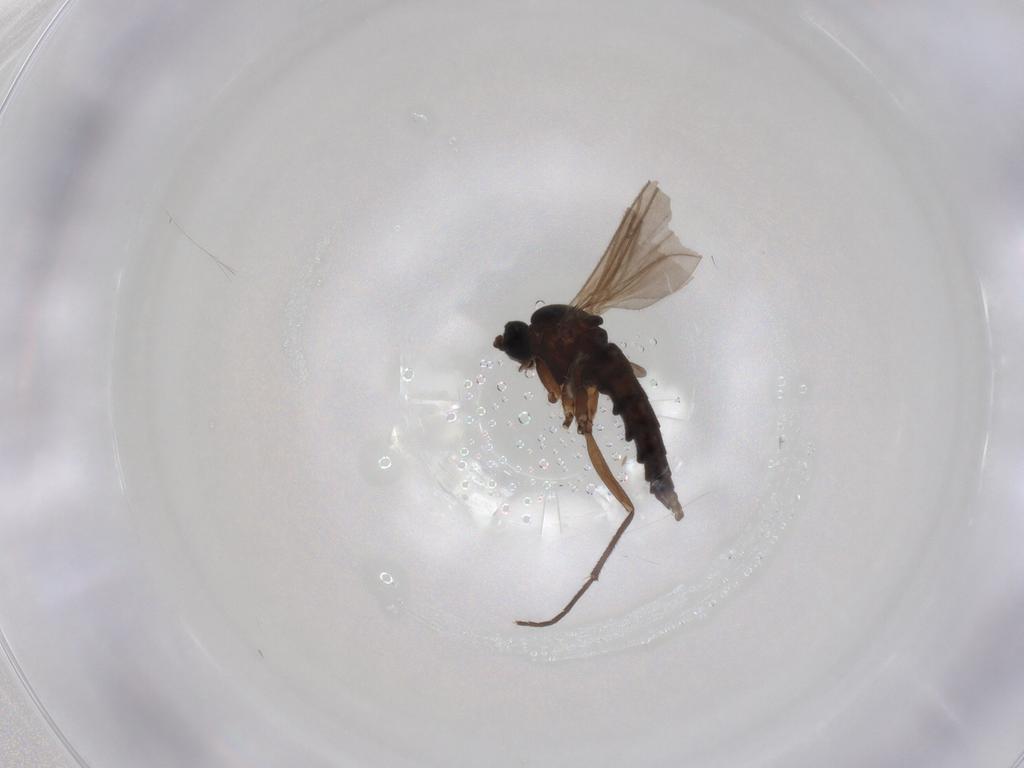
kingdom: Animalia
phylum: Arthropoda
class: Insecta
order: Diptera
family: Sciaridae
